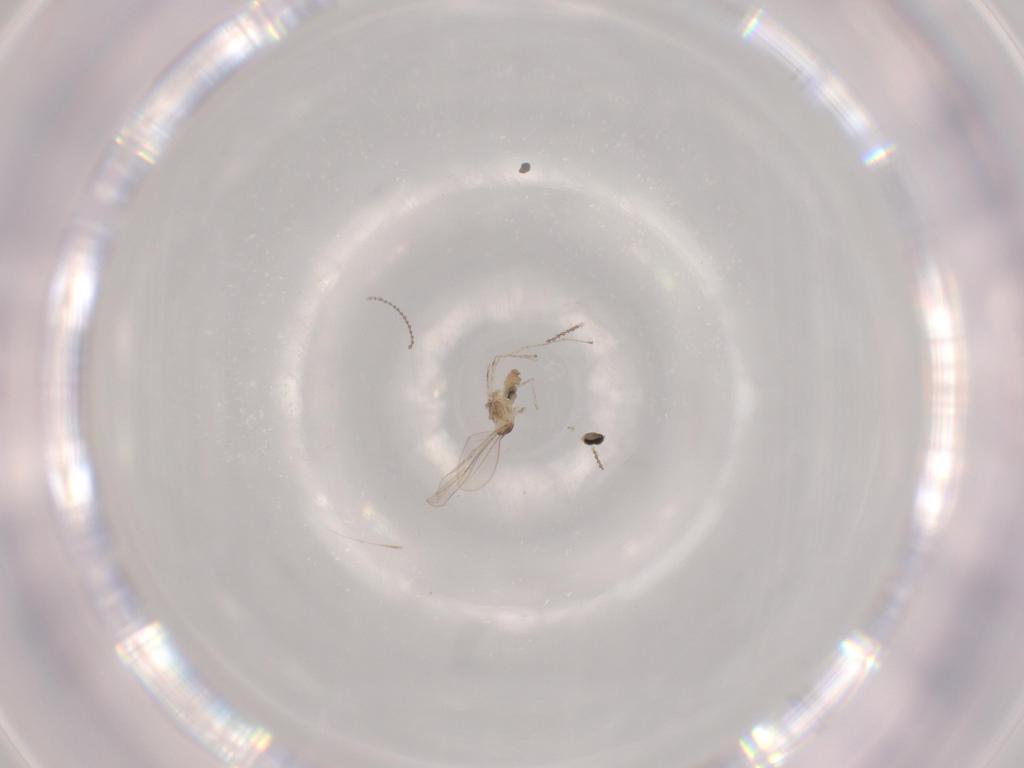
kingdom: Animalia
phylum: Arthropoda
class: Insecta
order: Diptera
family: Cecidomyiidae
